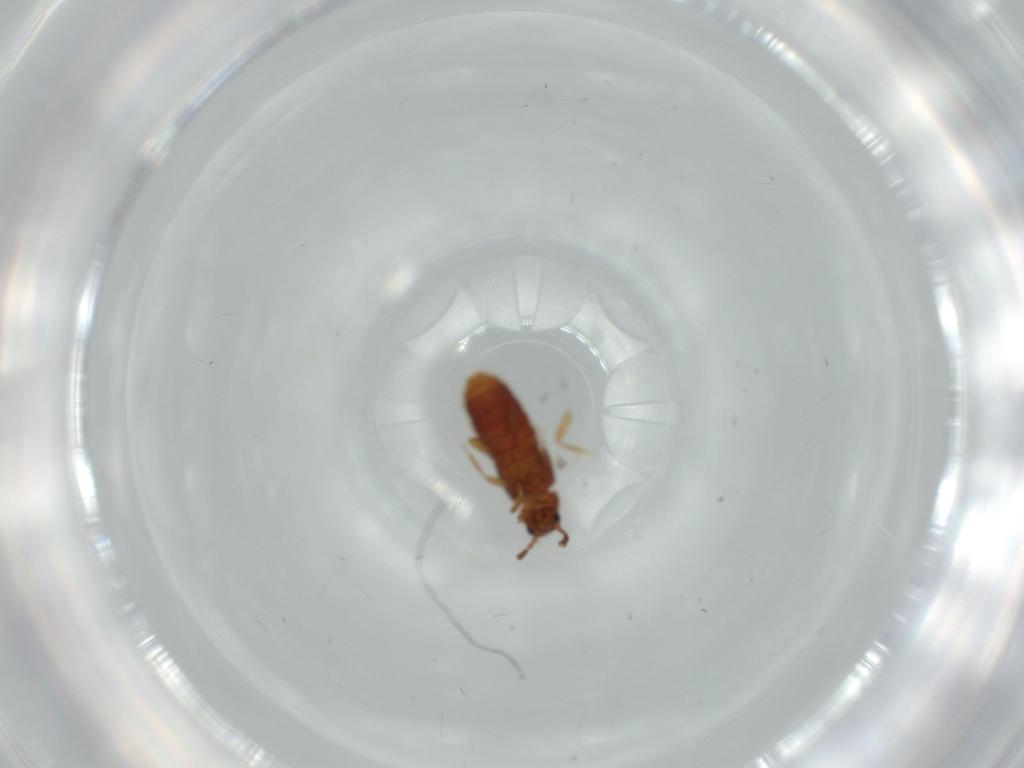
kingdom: Animalia
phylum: Arthropoda
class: Insecta
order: Coleoptera
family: Staphylinidae
